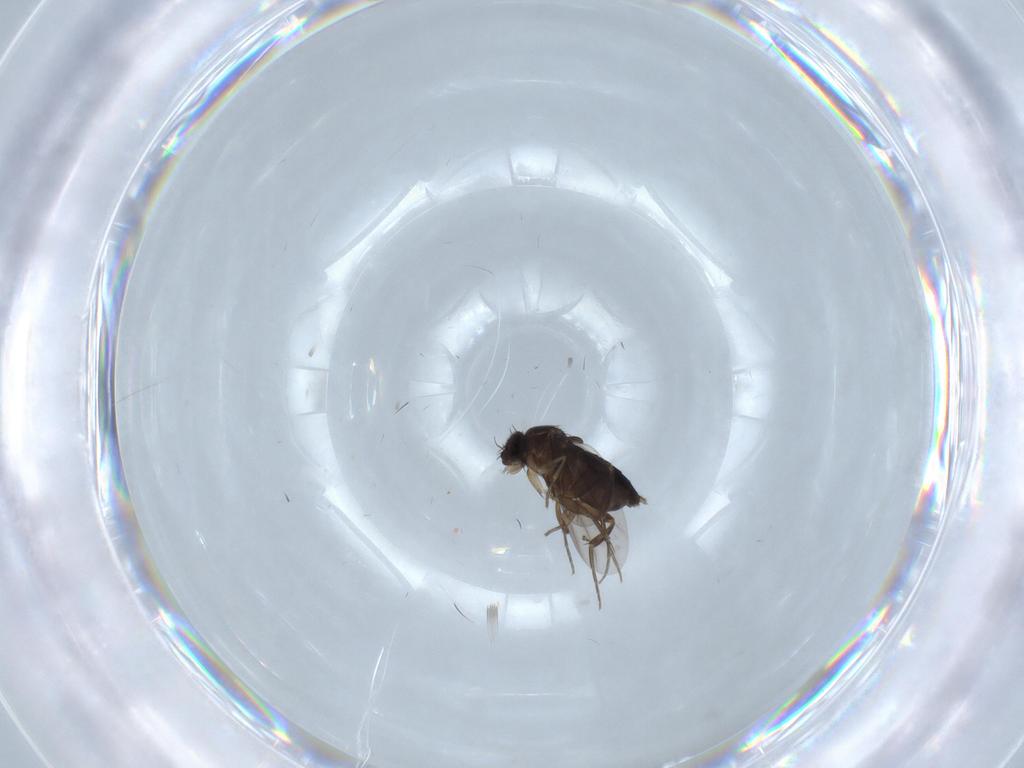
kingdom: Animalia
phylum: Arthropoda
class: Insecta
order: Diptera
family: Agromyzidae
